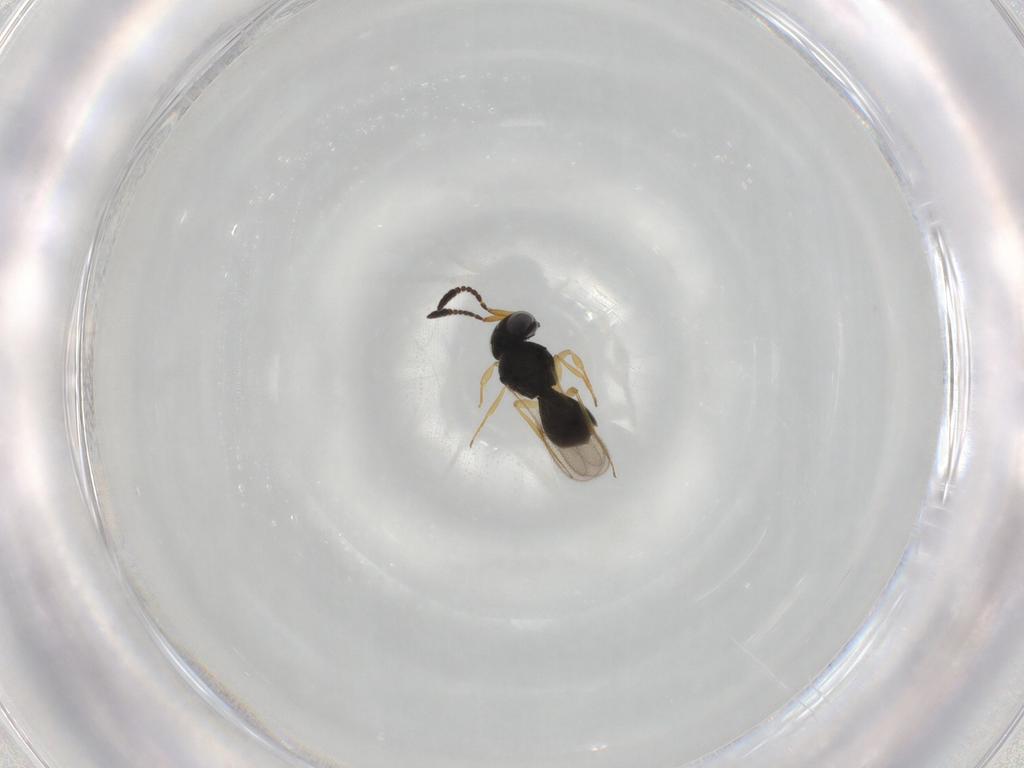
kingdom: Animalia
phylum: Arthropoda
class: Insecta
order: Hymenoptera
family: Scelionidae
